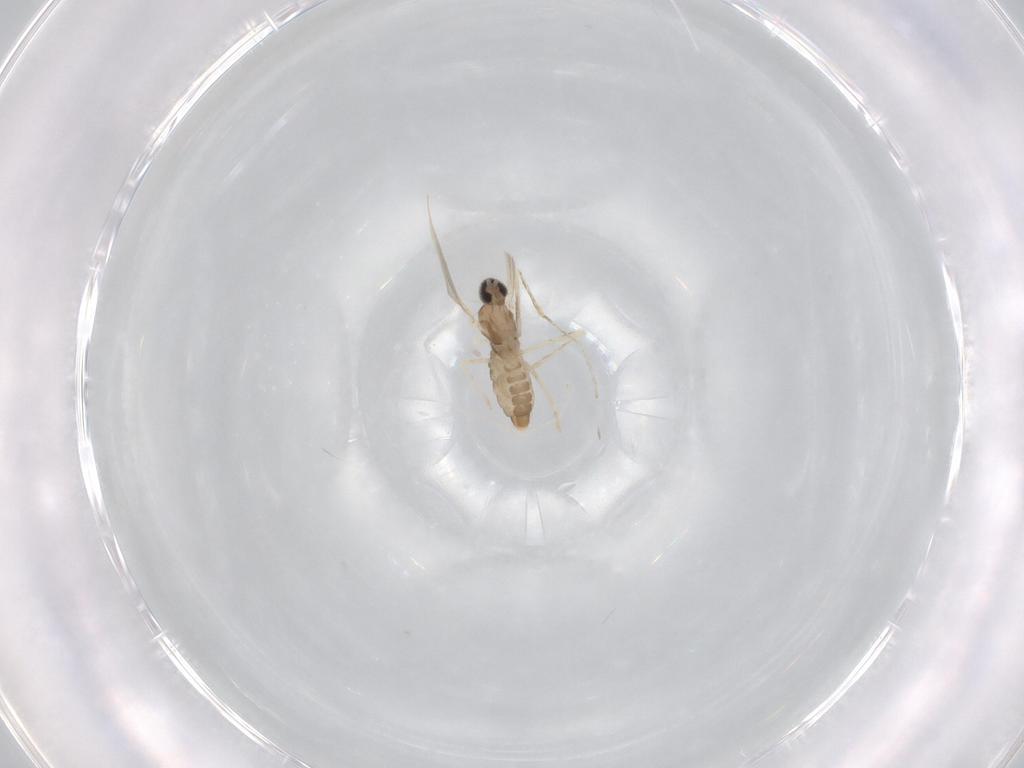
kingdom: Animalia
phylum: Arthropoda
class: Insecta
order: Diptera
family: Cecidomyiidae
